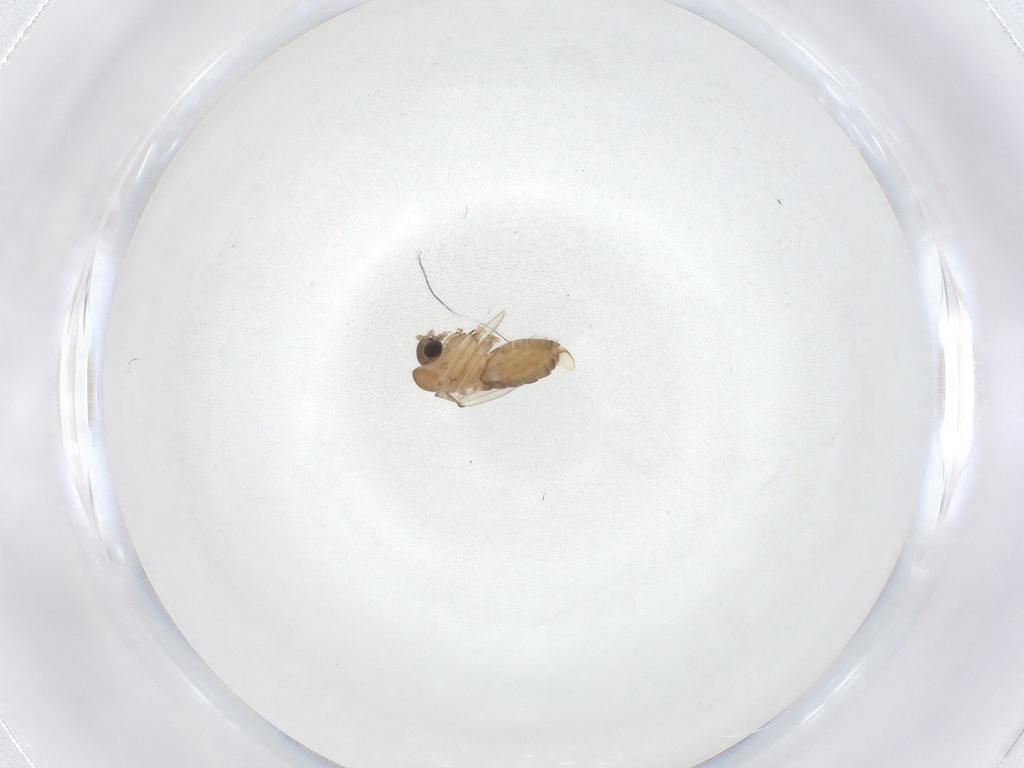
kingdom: Animalia
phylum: Arthropoda
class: Insecta
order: Diptera
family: Psychodidae
